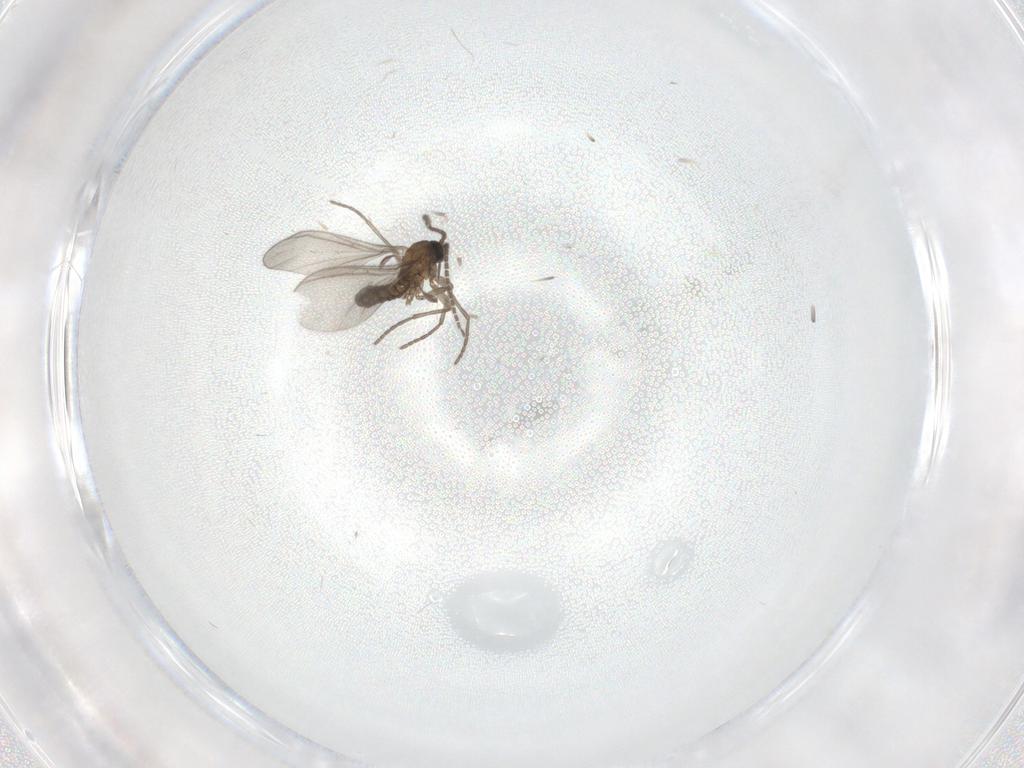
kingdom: Animalia
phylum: Arthropoda
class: Insecta
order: Diptera
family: Sciaridae
